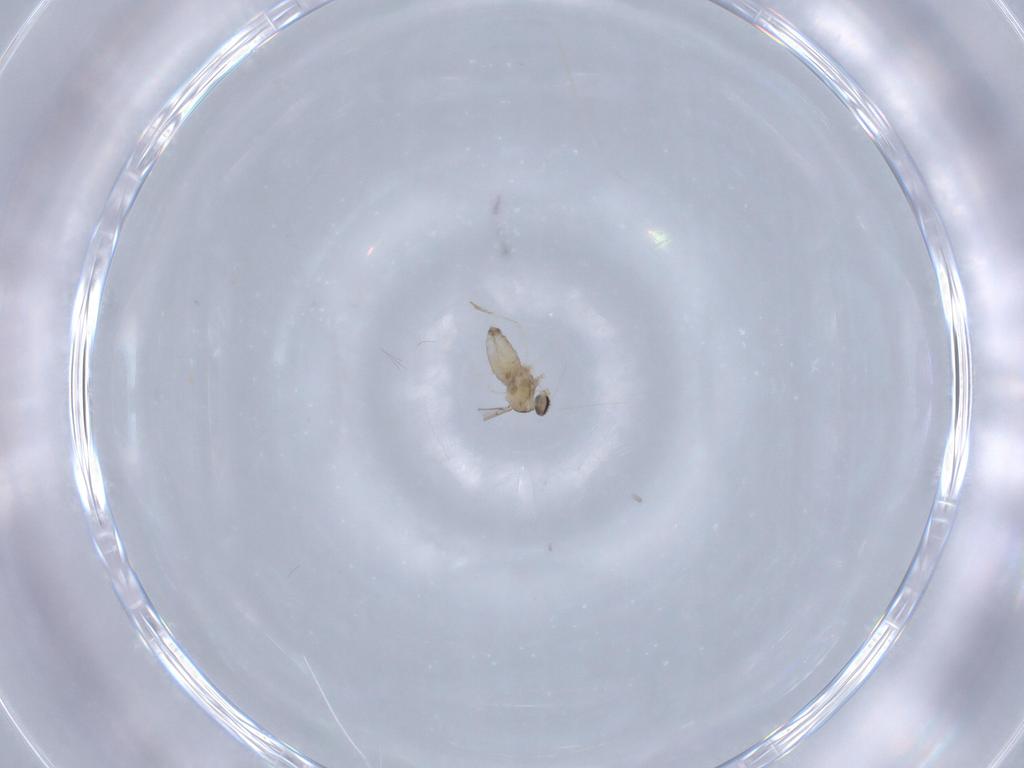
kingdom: Animalia
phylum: Arthropoda
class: Insecta
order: Diptera
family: Cecidomyiidae
